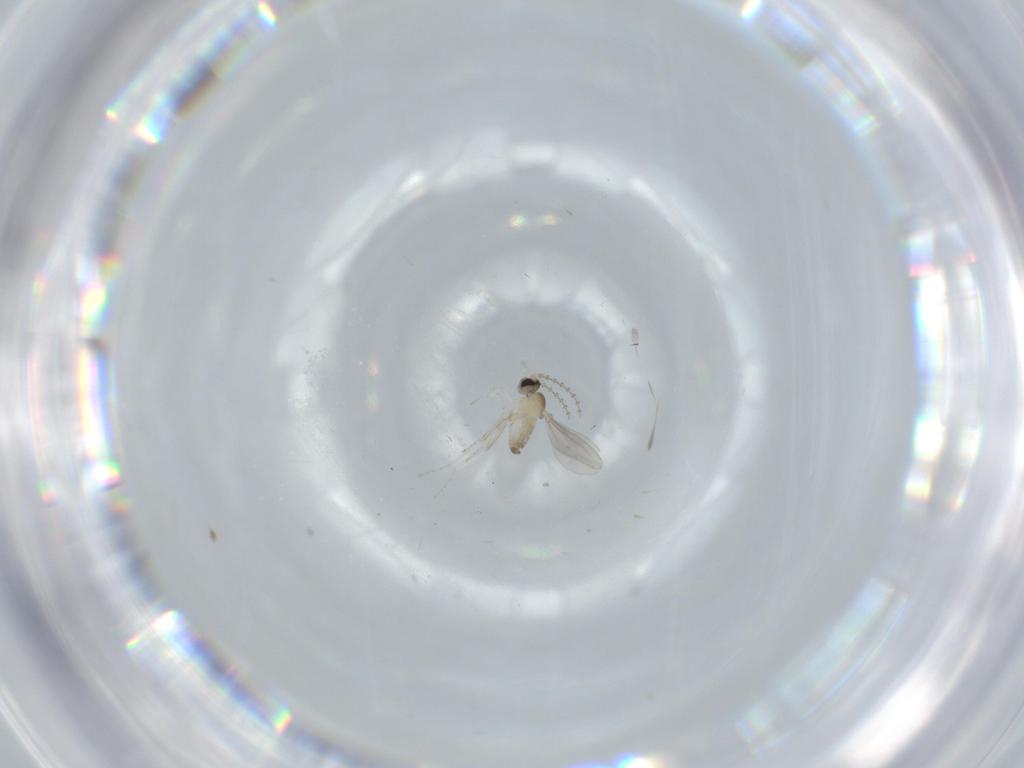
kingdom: Animalia
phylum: Arthropoda
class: Insecta
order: Diptera
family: Cecidomyiidae
